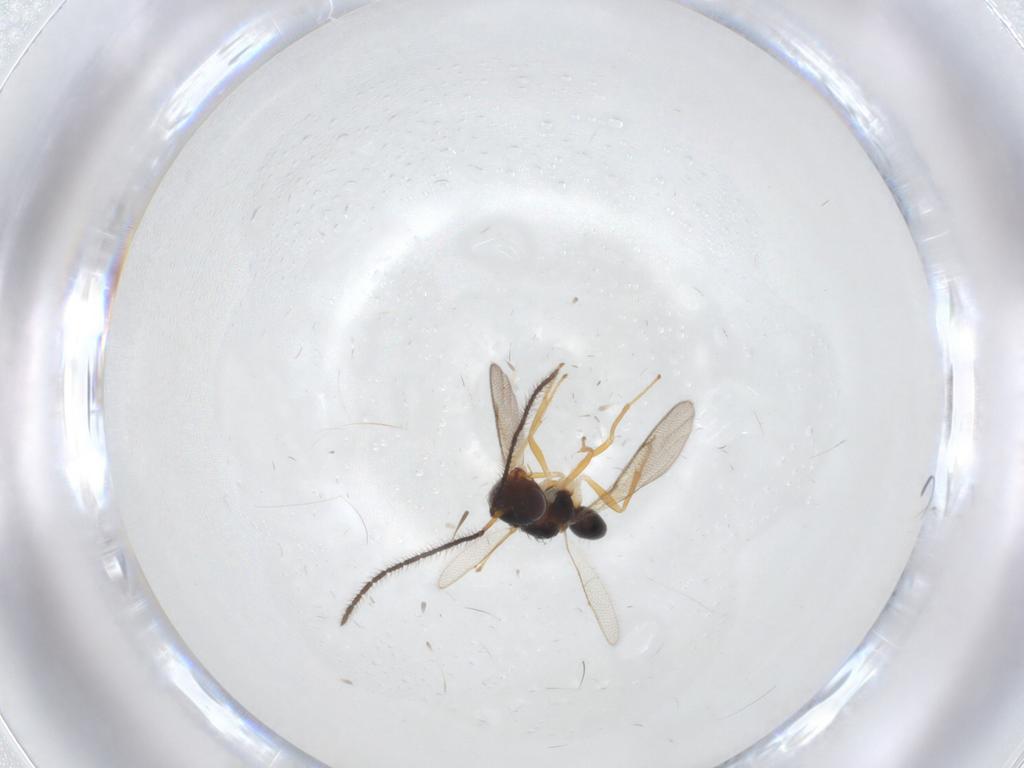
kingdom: Animalia
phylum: Arthropoda
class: Insecta
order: Hymenoptera
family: Diparidae
